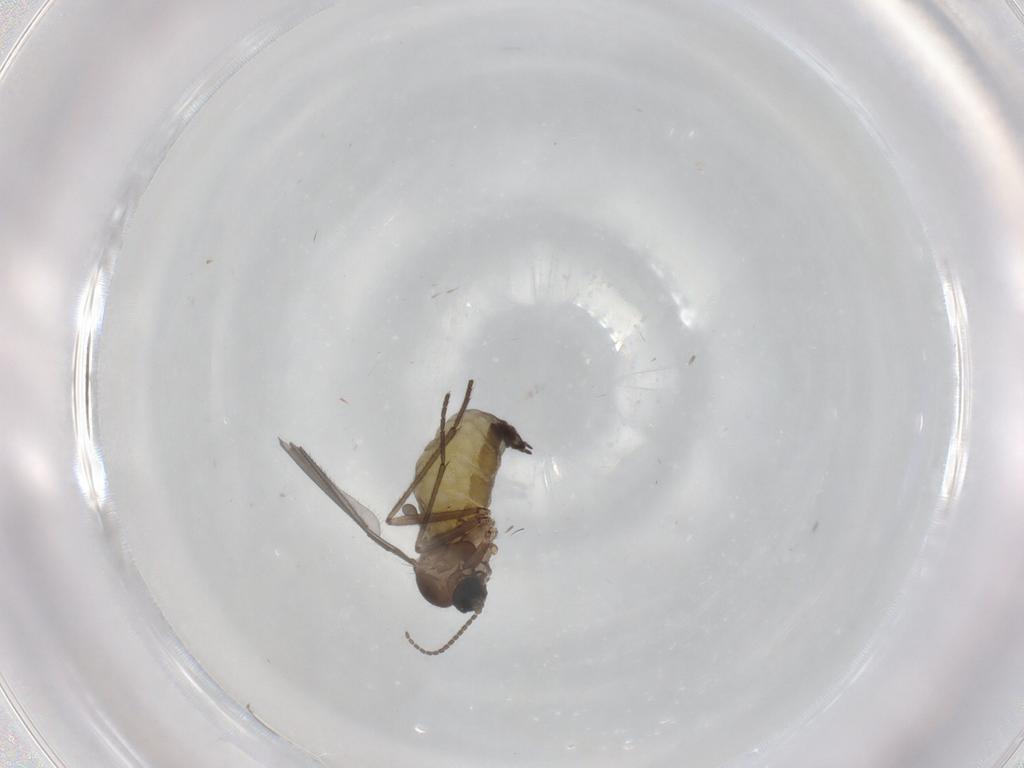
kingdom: Animalia
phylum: Arthropoda
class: Insecta
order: Diptera
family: Sciaridae
